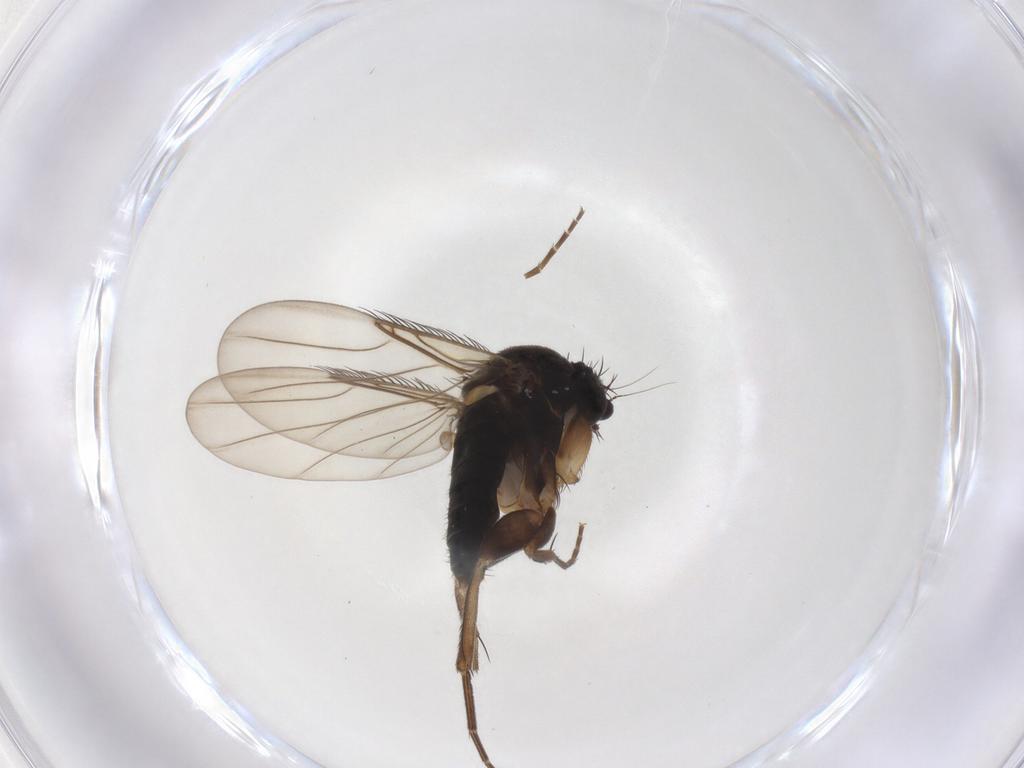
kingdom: Animalia
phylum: Arthropoda
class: Insecta
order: Diptera
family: Phoridae
